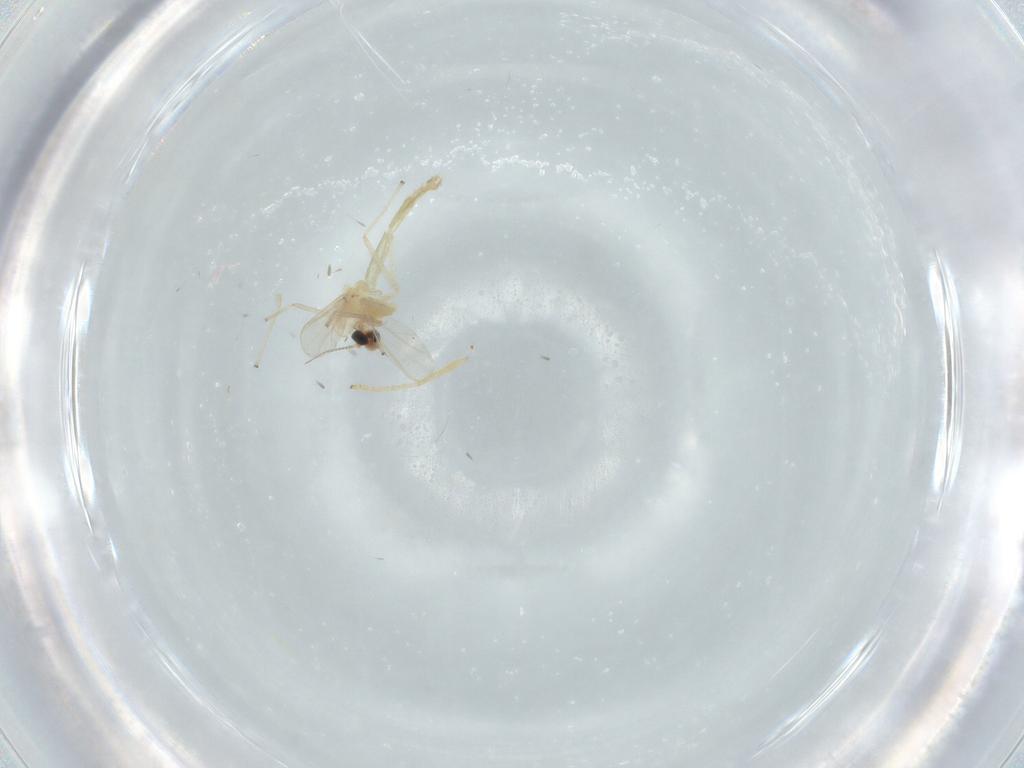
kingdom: Animalia
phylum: Arthropoda
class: Insecta
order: Diptera
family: Chironomidae
